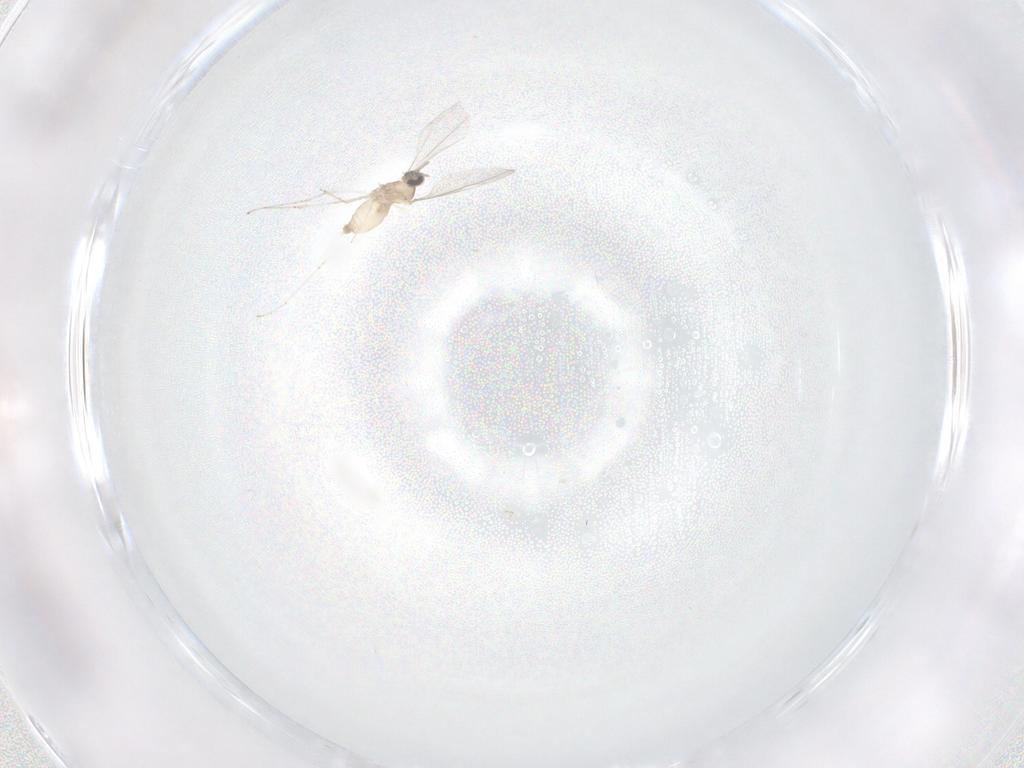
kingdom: Animalia
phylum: Arthropoda
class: Insecta
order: Diptera
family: Cecidomyiidae
